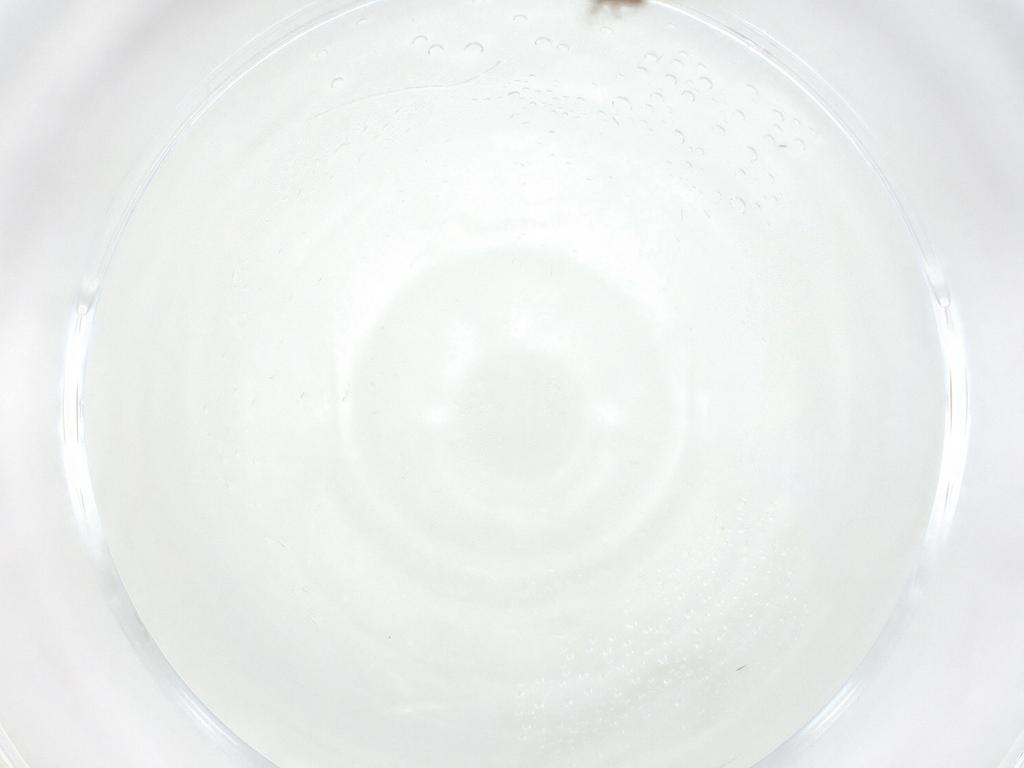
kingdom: Animalia
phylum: Arthropoda
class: Insecta
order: Diptera
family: Cecidomyiidae
